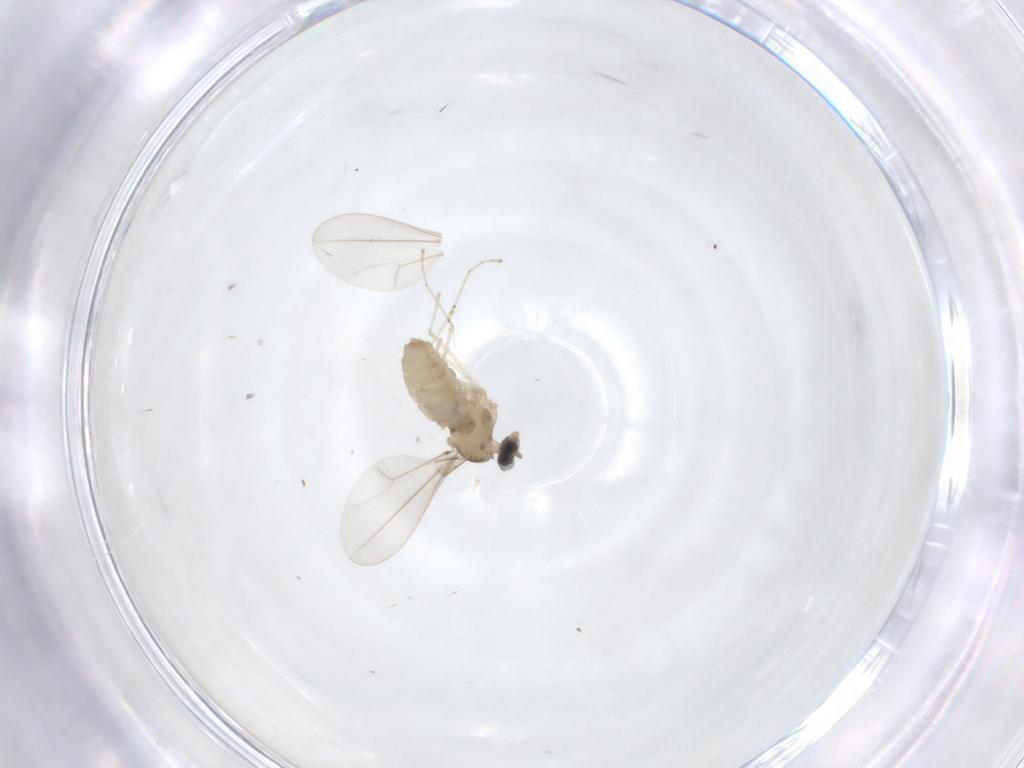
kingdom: Animalia
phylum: Arthropoda
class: Insecta
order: Diptera
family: Cecidomyiidae
